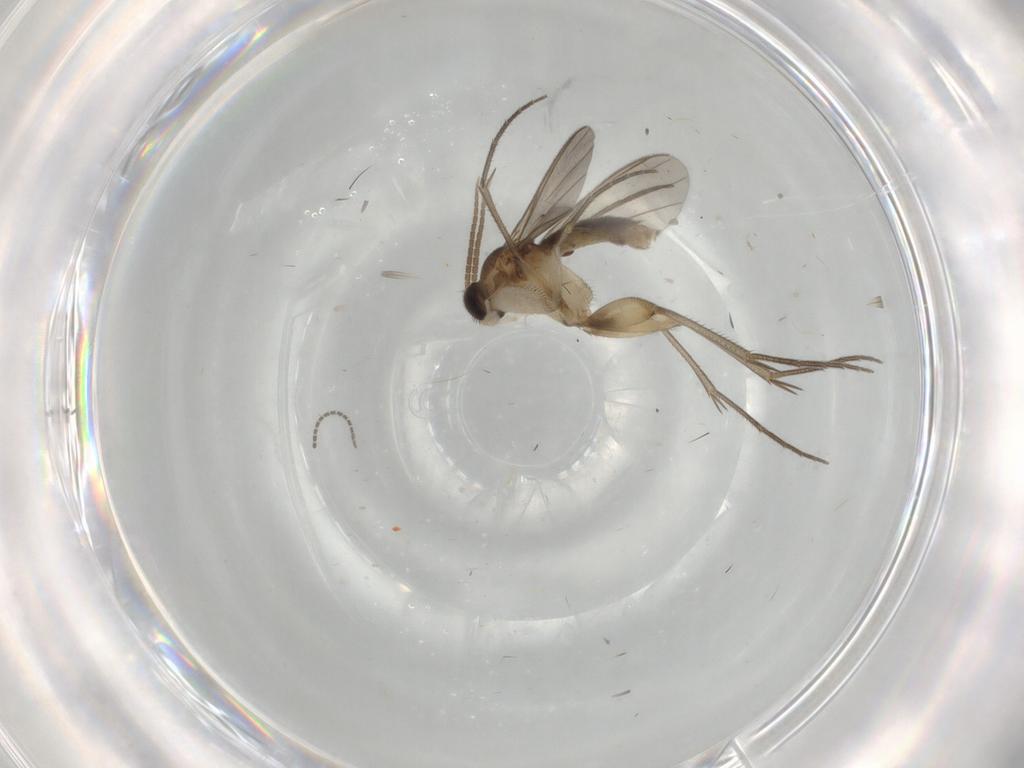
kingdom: Animalia
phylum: Arthropoda
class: Insecta
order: Diptera
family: Mycetophilidae
